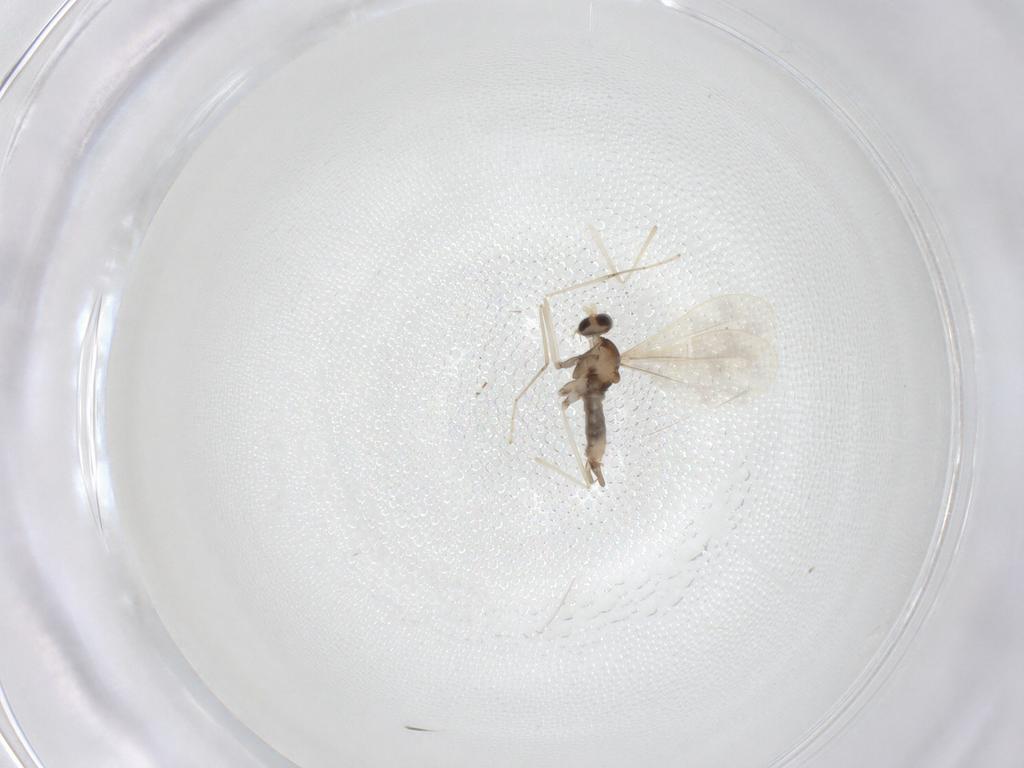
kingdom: Animalia
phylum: Arthropoda
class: Insecta
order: Diptera
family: Cecidomyiidae
